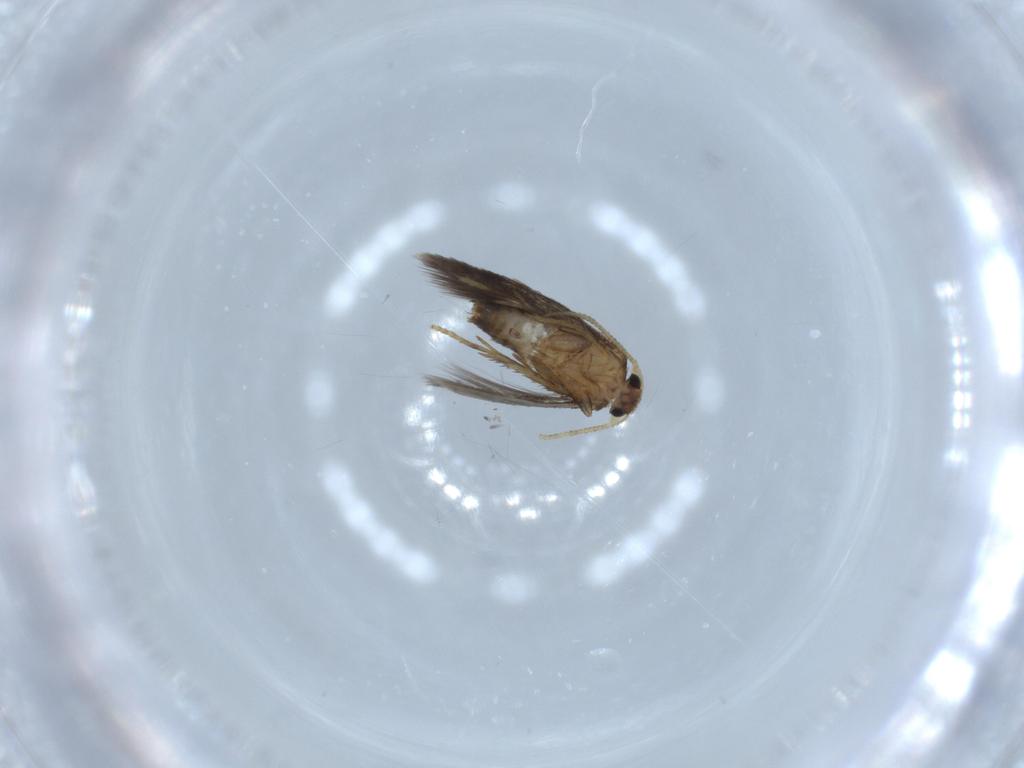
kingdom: Animalia
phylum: Arthropoda
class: Insecta
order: Lepidoptera
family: Nepticulidae
